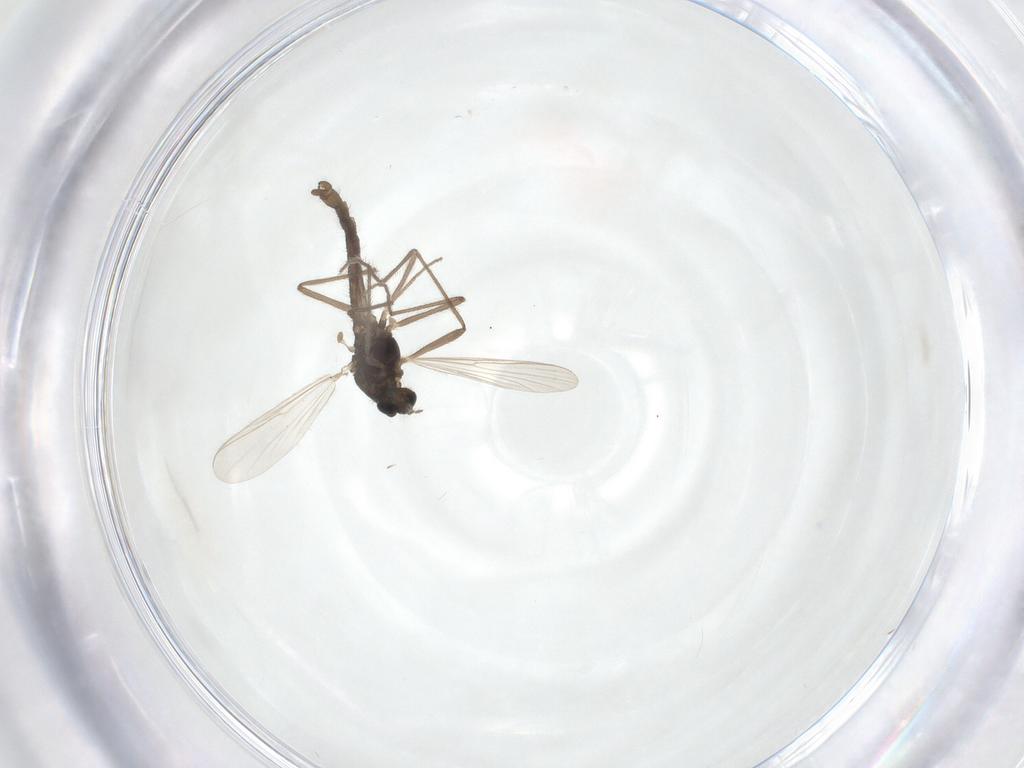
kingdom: Animalia
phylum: Arthropoda
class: Insecta
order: Diptera
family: Chironomidae
